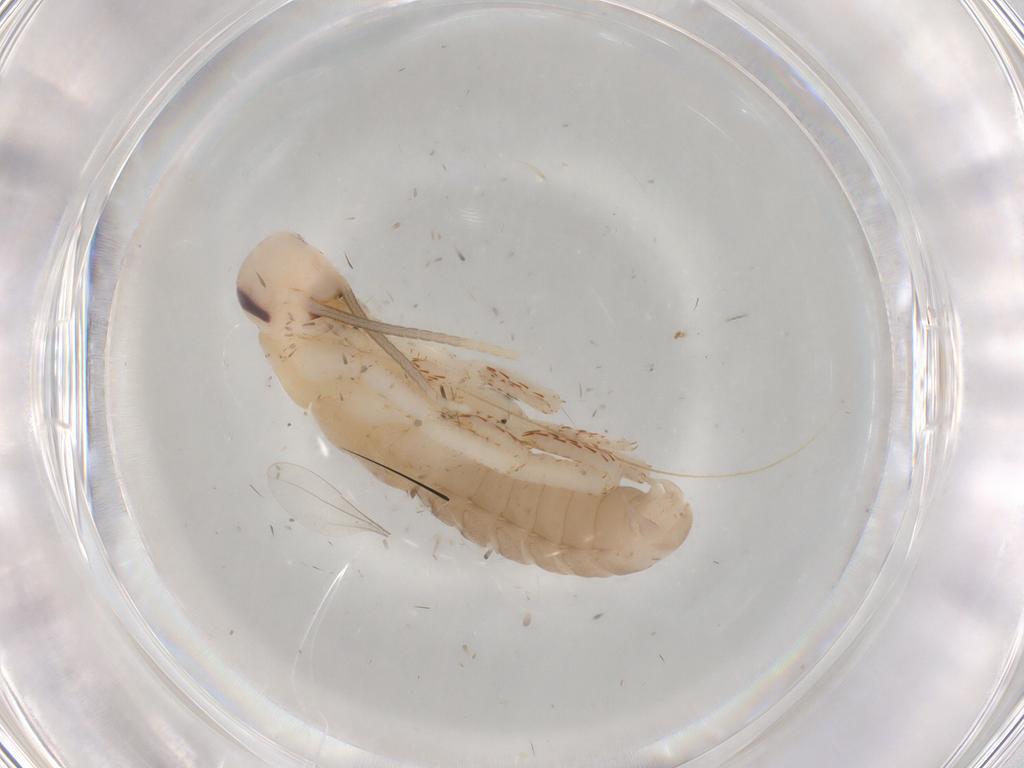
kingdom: Animalia
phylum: Arthropoda
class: Insecta
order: Blattodea
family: Blaberidae
